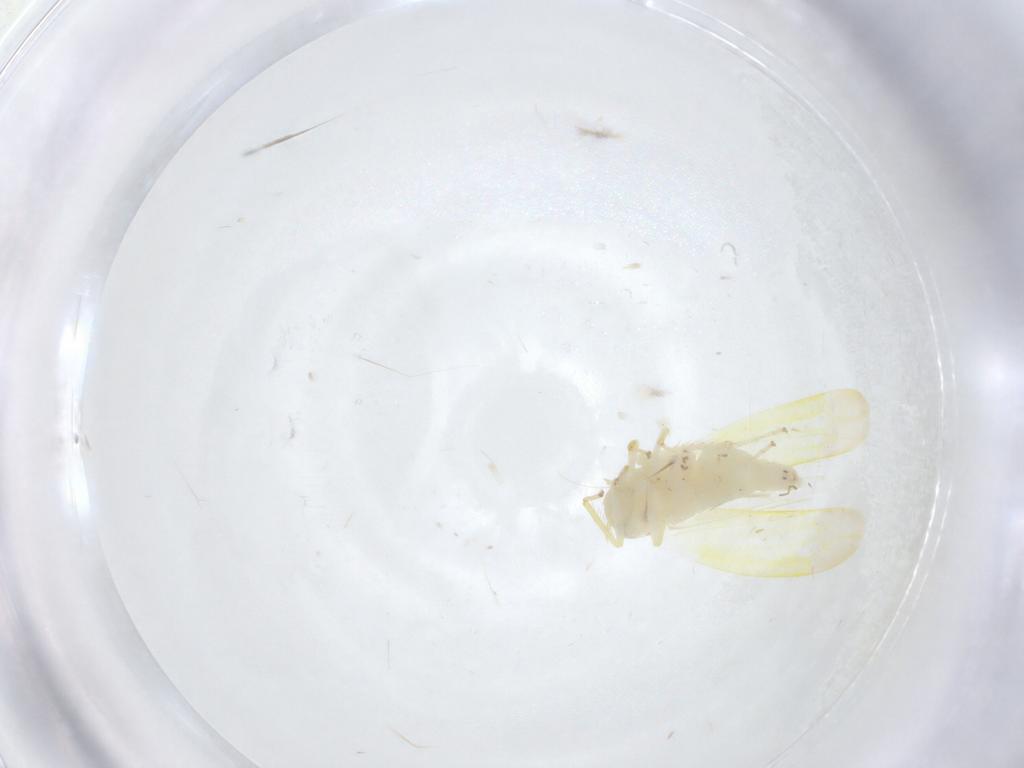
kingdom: Animalia
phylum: Arthropoda
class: Insecta
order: Hemiptera
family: Cicadellidae
